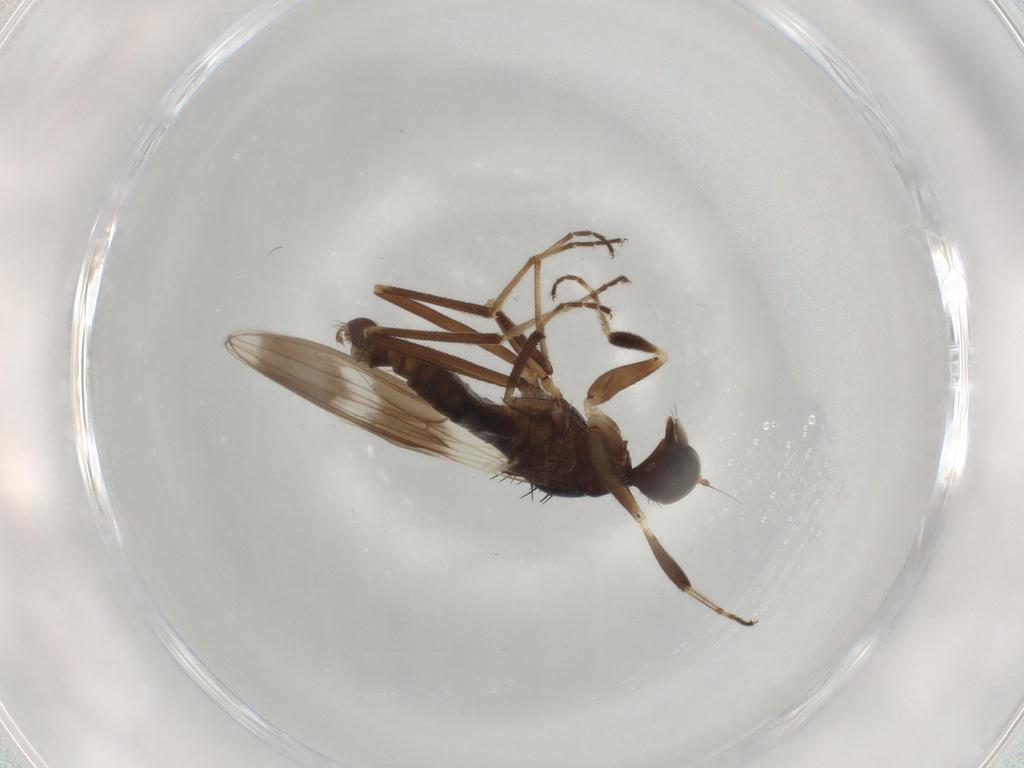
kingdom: Animalia
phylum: Arthropoda
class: Insecta
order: Diptera
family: Hybotidae
